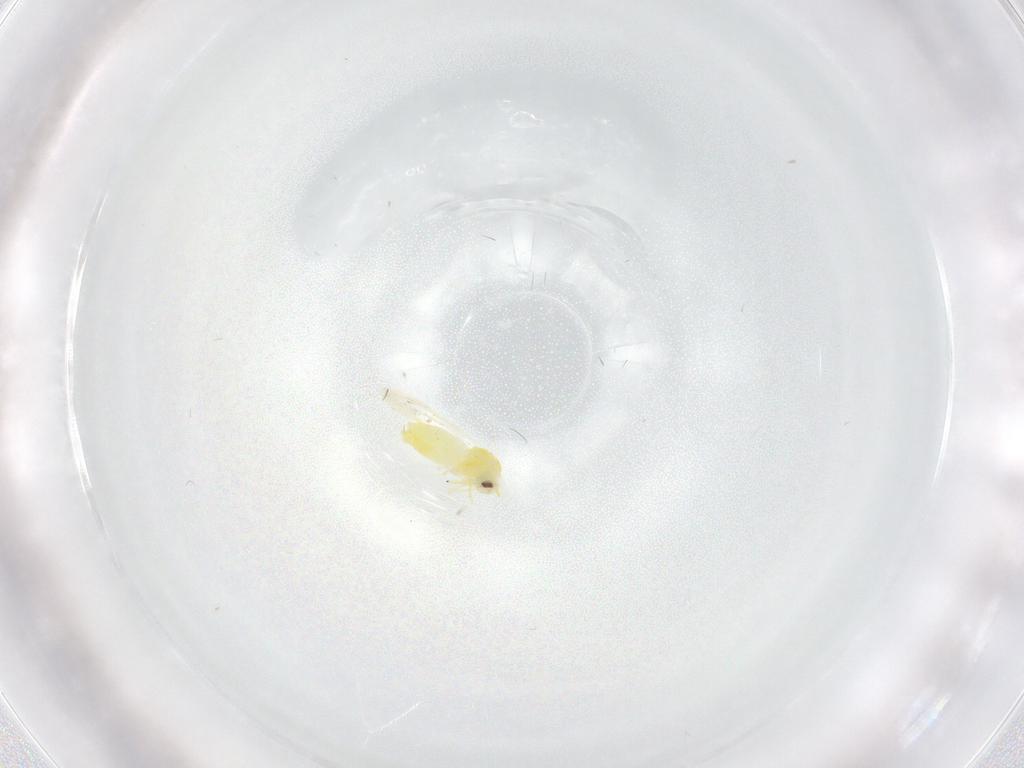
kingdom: Animalia
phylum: Arthropoda
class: Insecta
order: Hemiptera
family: Aleyrodidae
